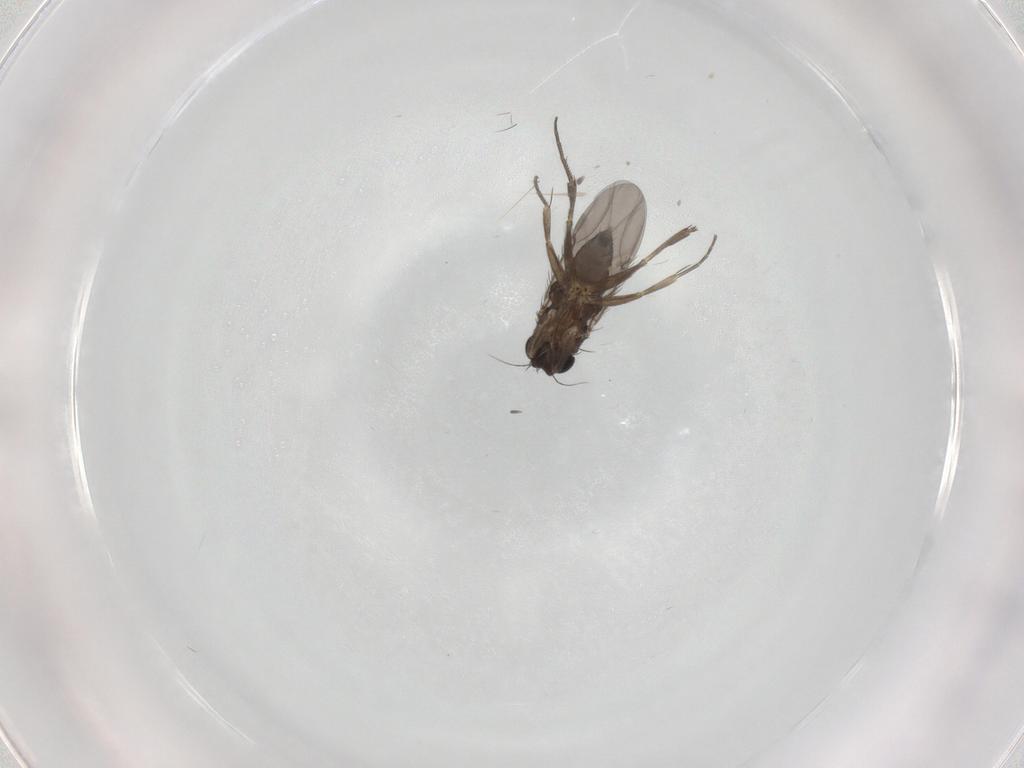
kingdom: Animalia
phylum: Arthropoda
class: Insecta
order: Diptera
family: Phoridae
